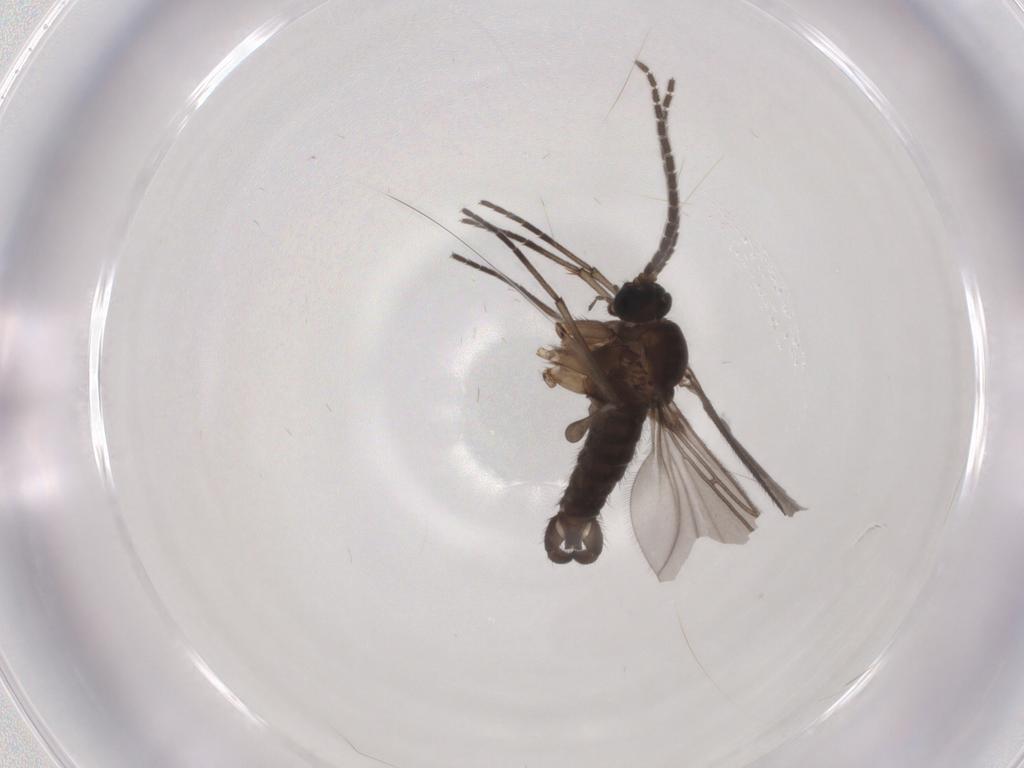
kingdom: Animalia
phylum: Arthropoda
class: Insecta
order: Diptera
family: Sciaridae
